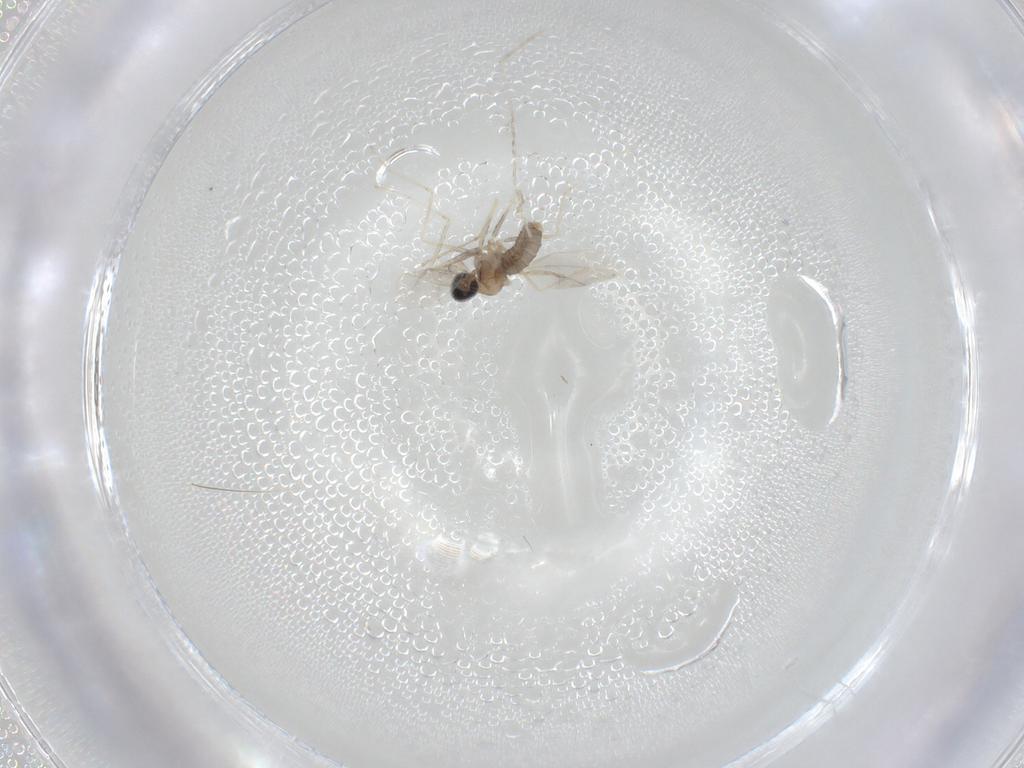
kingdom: Animalia
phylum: Arthropoda
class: Insecta
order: Diptera
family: Cecidomyiidae
